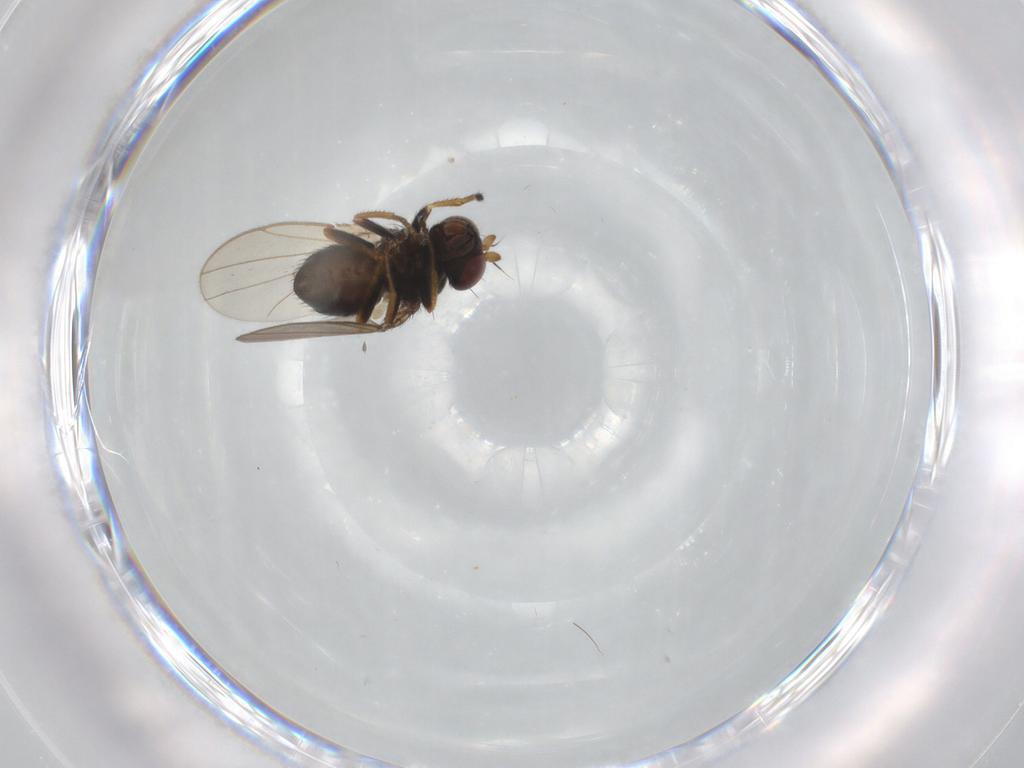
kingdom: Animalia
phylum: Arthropoda
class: Insecta
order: Diptera
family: Ephydridae
